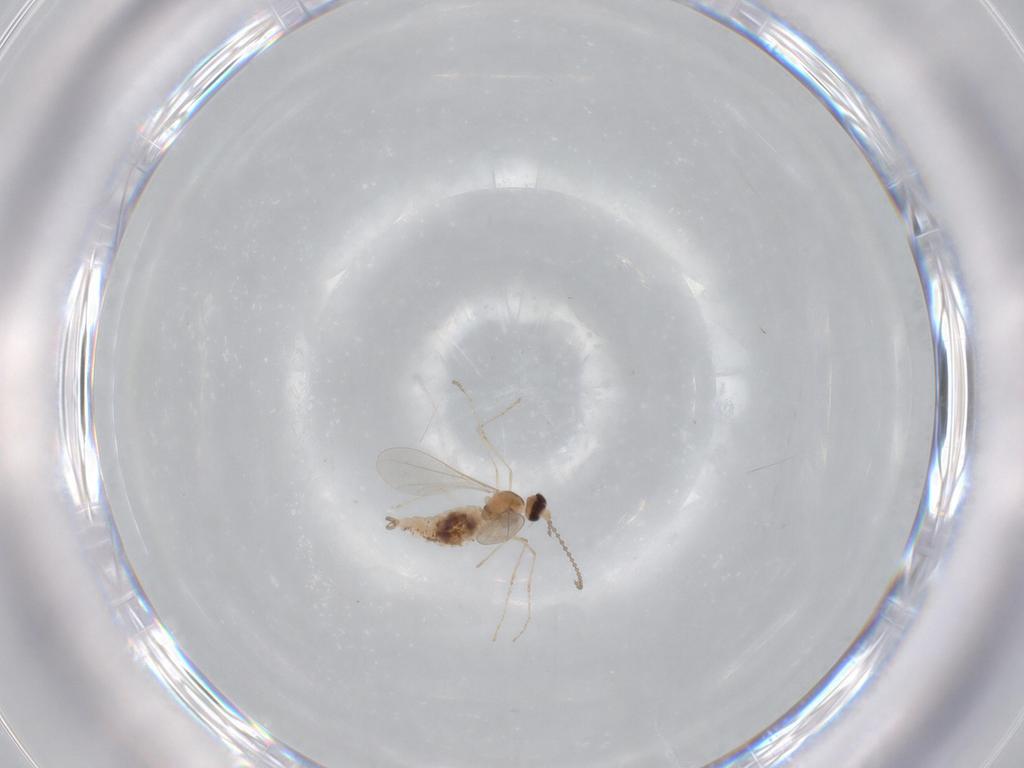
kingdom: Animalia
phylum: Arthropoda
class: Insecta
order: Diptera
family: Cecidomyiidae
